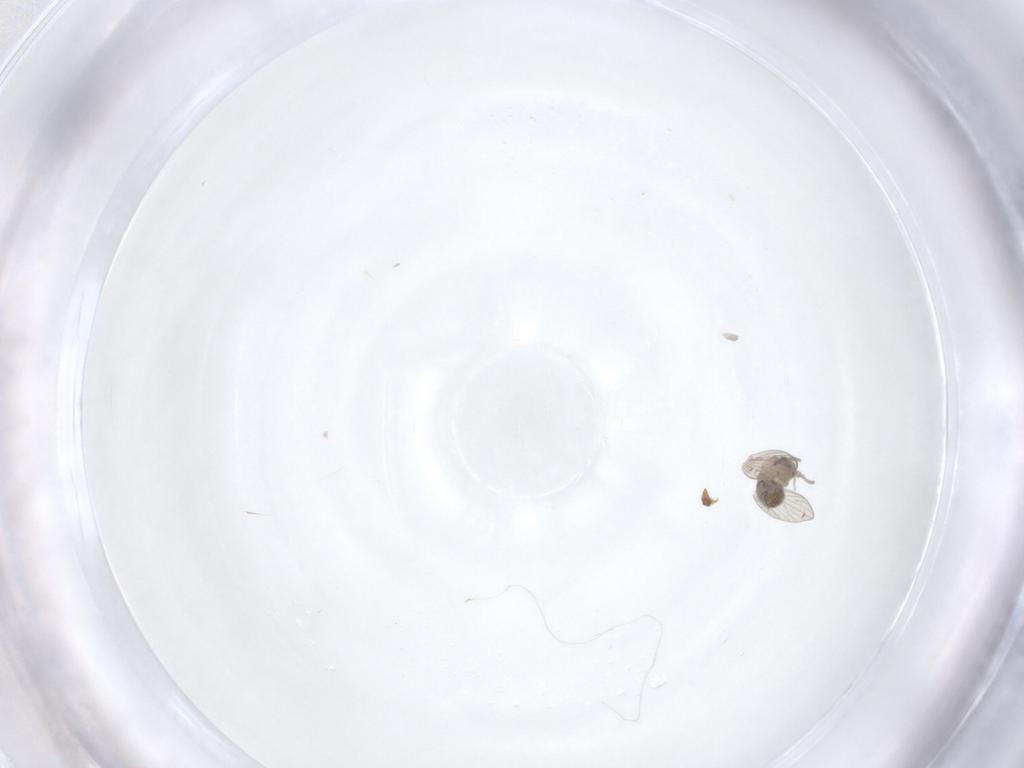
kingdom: Animalia
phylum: Arthropoda
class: Insecta
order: Diptera
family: Psychodidae
